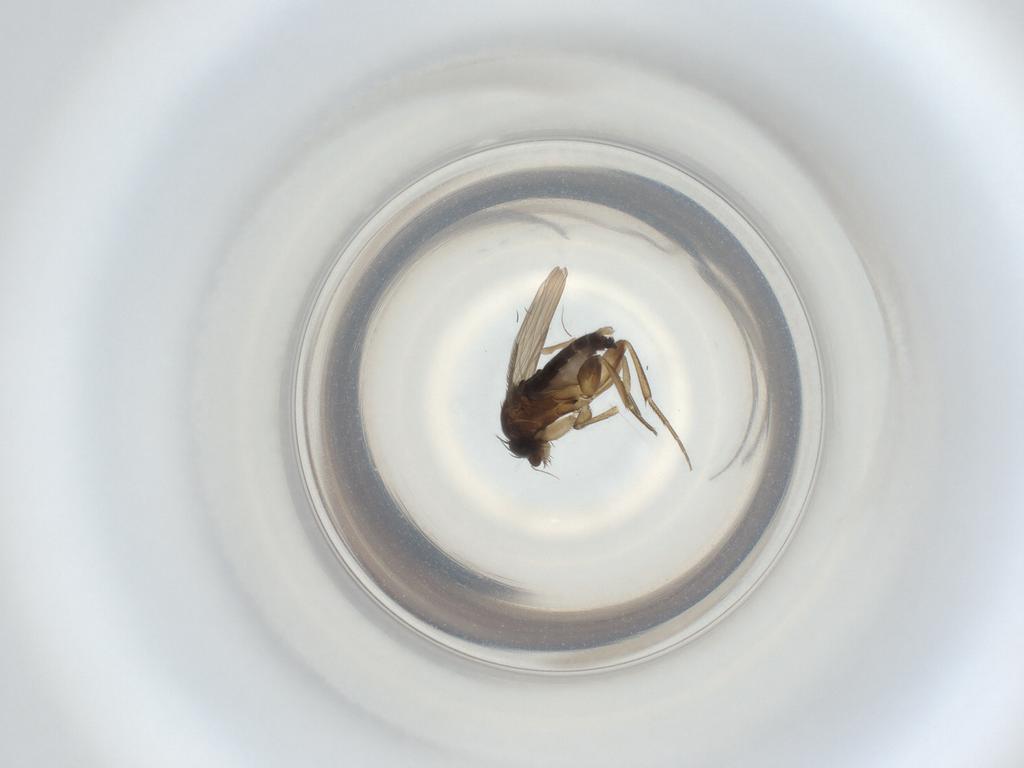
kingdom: Animalia
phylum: Arthropoda
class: Insecta
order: Diptera
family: Phoridae
